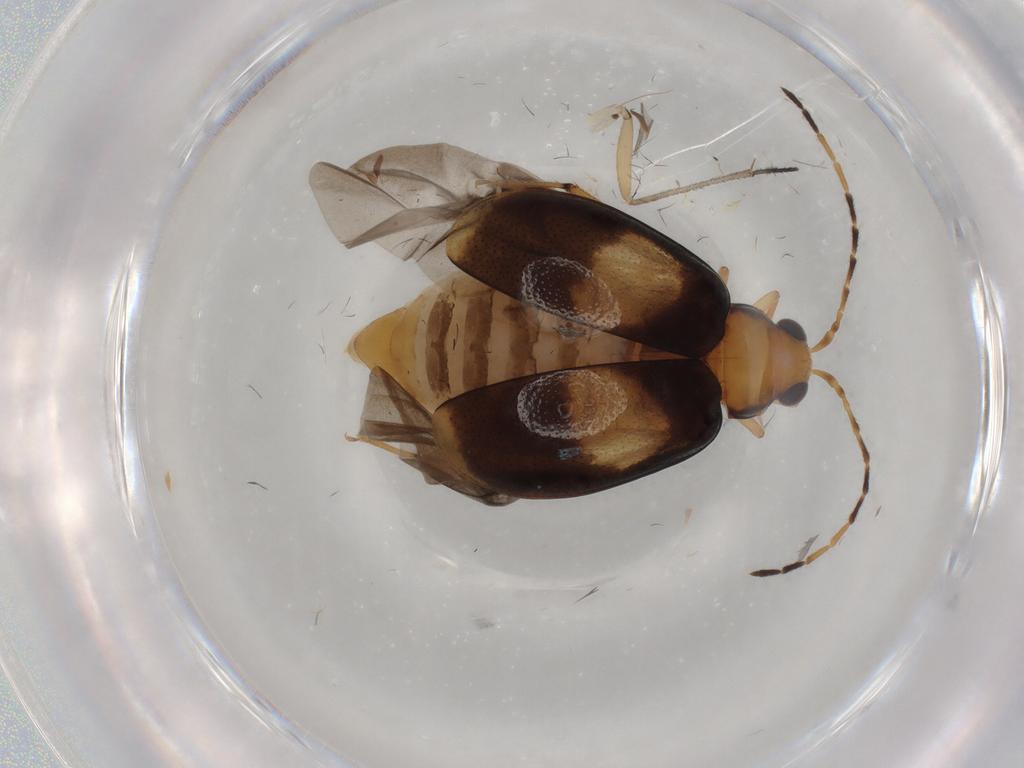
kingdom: Animalia
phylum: Arthropoda
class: Insecta
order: Coleoptera
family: Chrysomelidae
